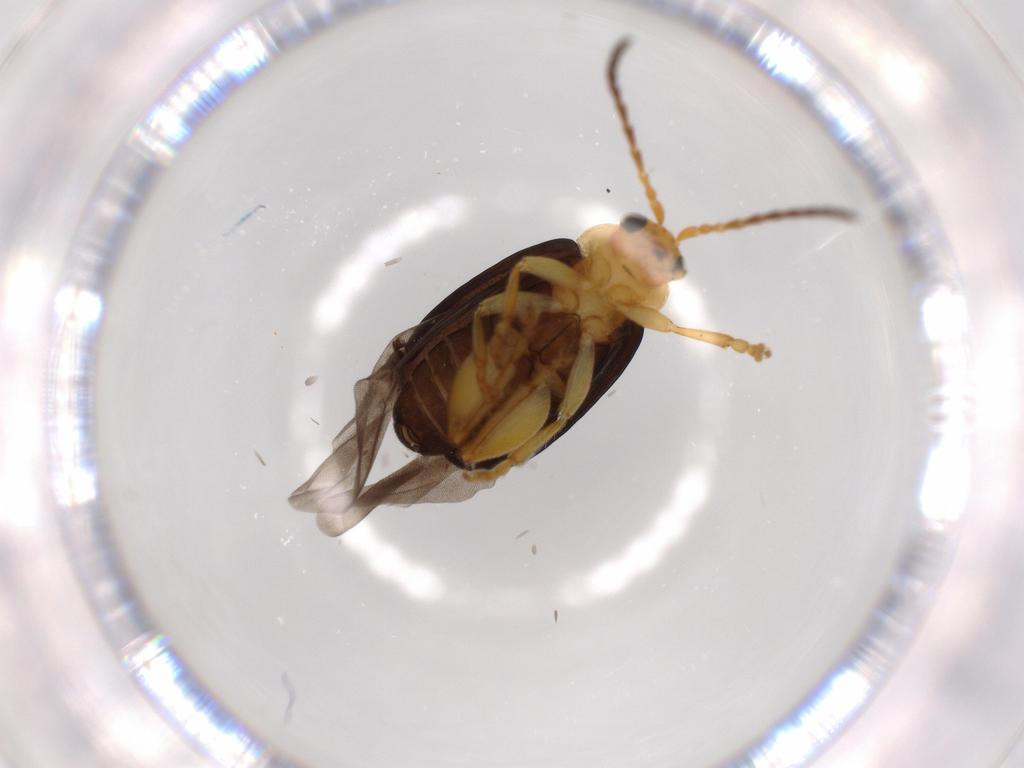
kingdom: Animalia
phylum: Arthropoda
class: Insecta
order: Coleoptera
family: Chrysomelidae
